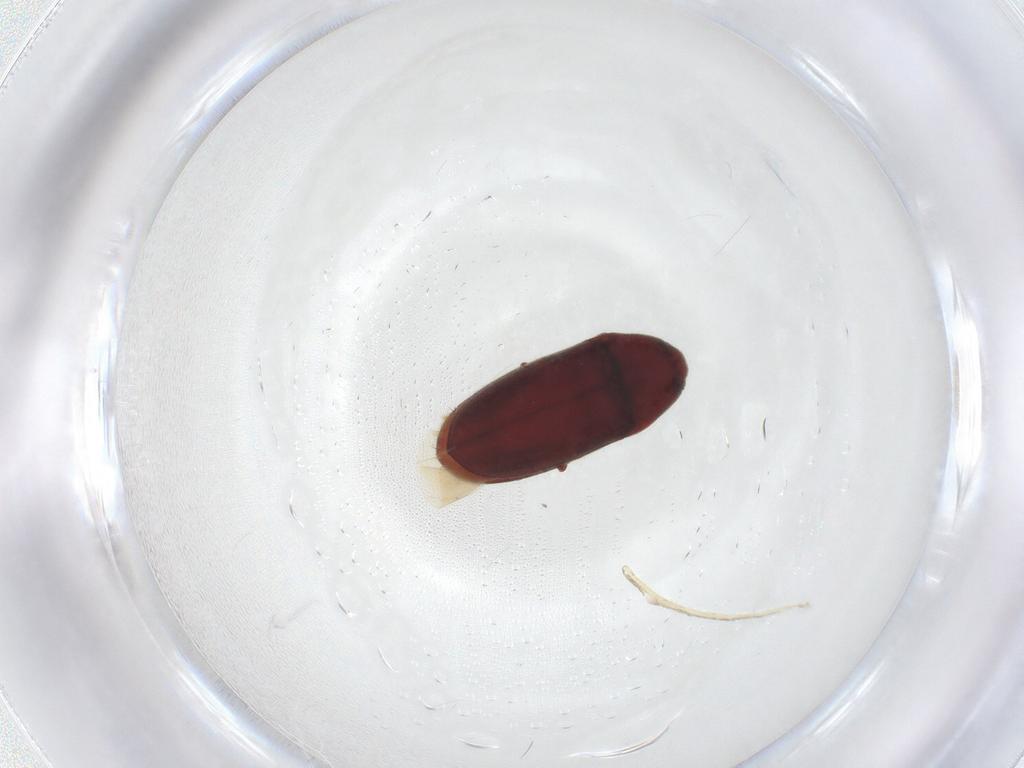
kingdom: Animalia
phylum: Arthropoda
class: Insecta
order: Coleoptera
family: Throscidae
